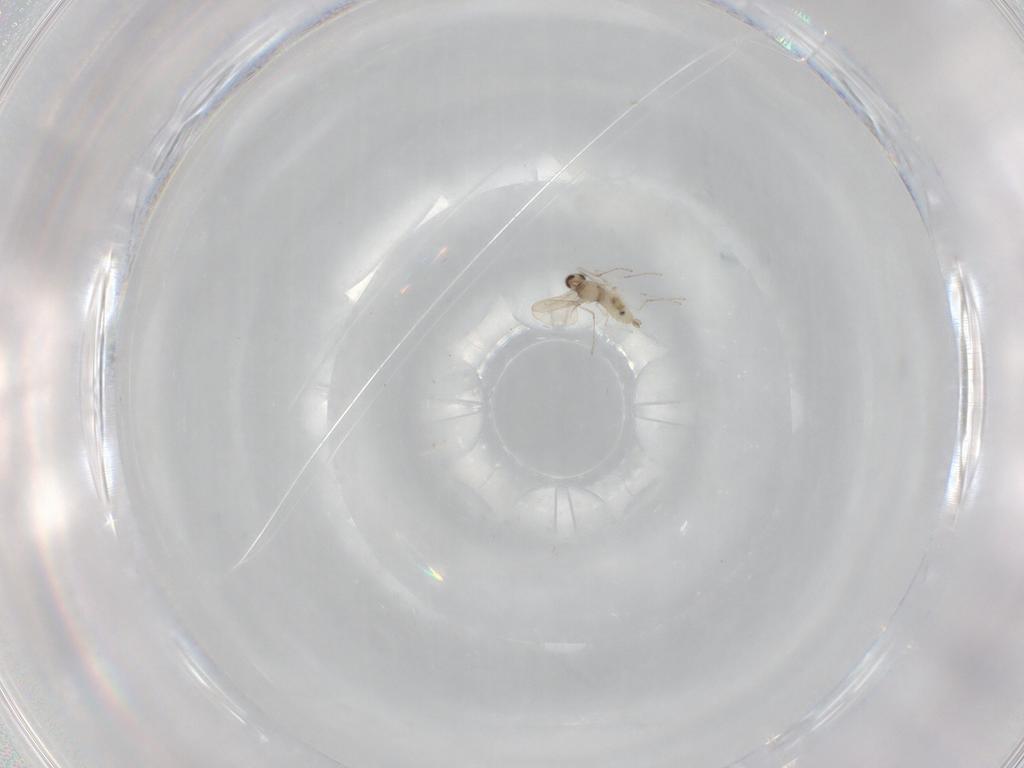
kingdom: Animalia
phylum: Arthropoda
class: Insecta
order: Diptera
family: Cecidomyiidae
